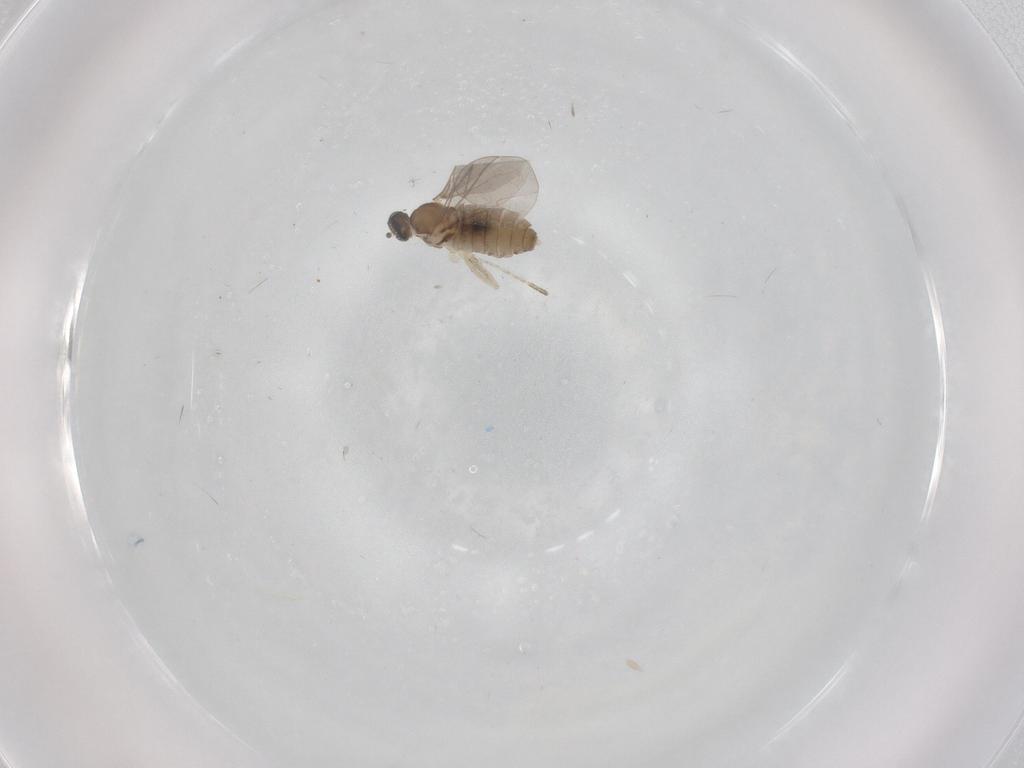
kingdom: Animalia
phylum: Arthropoda
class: Insecta
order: Diptera
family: Cecidomyiidae
